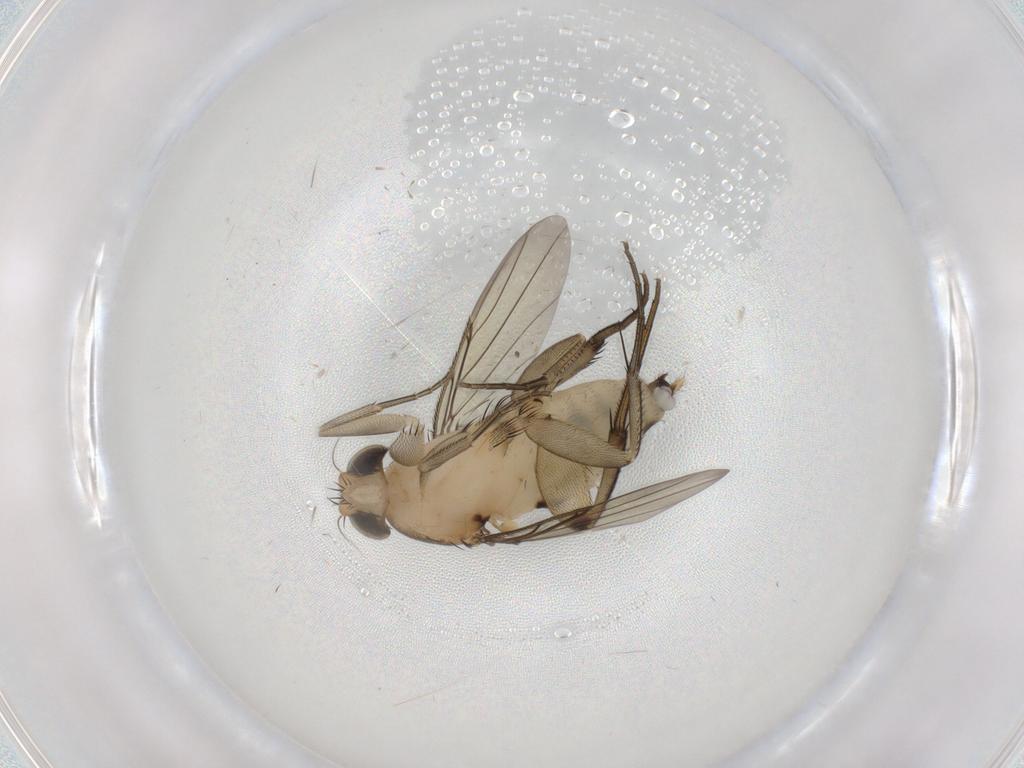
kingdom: Animalia
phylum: Arthropoda
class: Insecta
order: Diptera
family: Phoridae
